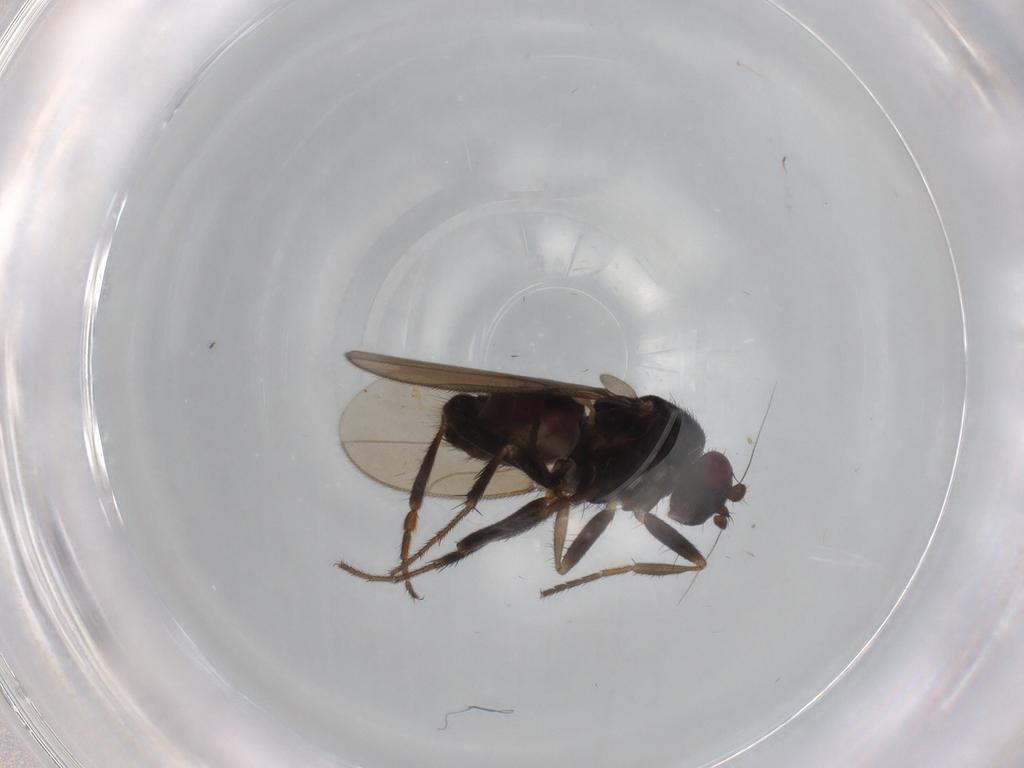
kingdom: Animalia
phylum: Arthropoda
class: Insecta
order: Diptera
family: Sphaeroceridae
